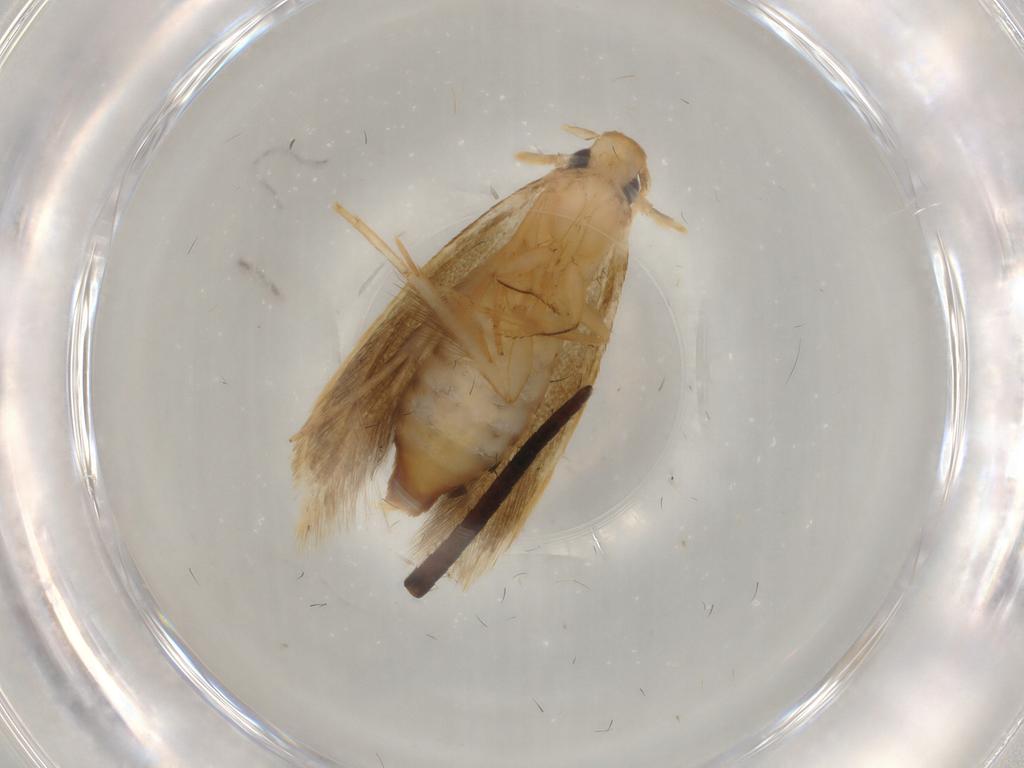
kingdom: Animalia
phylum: Arthropoda
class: Insecta
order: Lepidoptera
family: Tineidae
